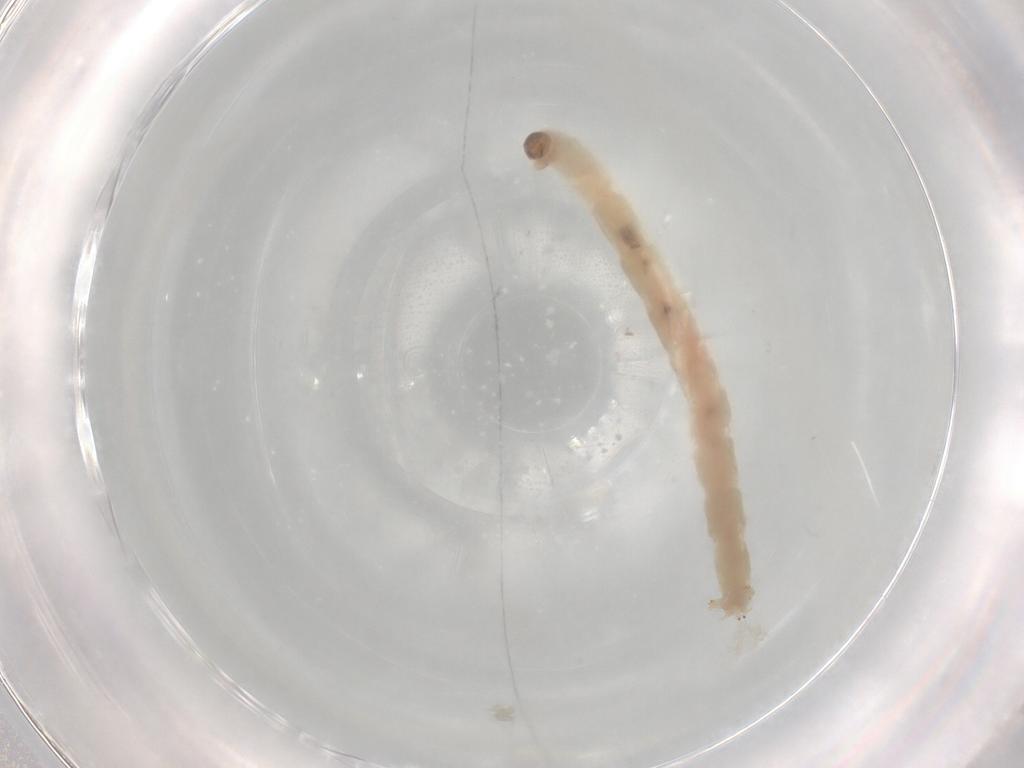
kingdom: Animalia
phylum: Arthropoda
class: Insecta
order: Diptera
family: Chironomidae
